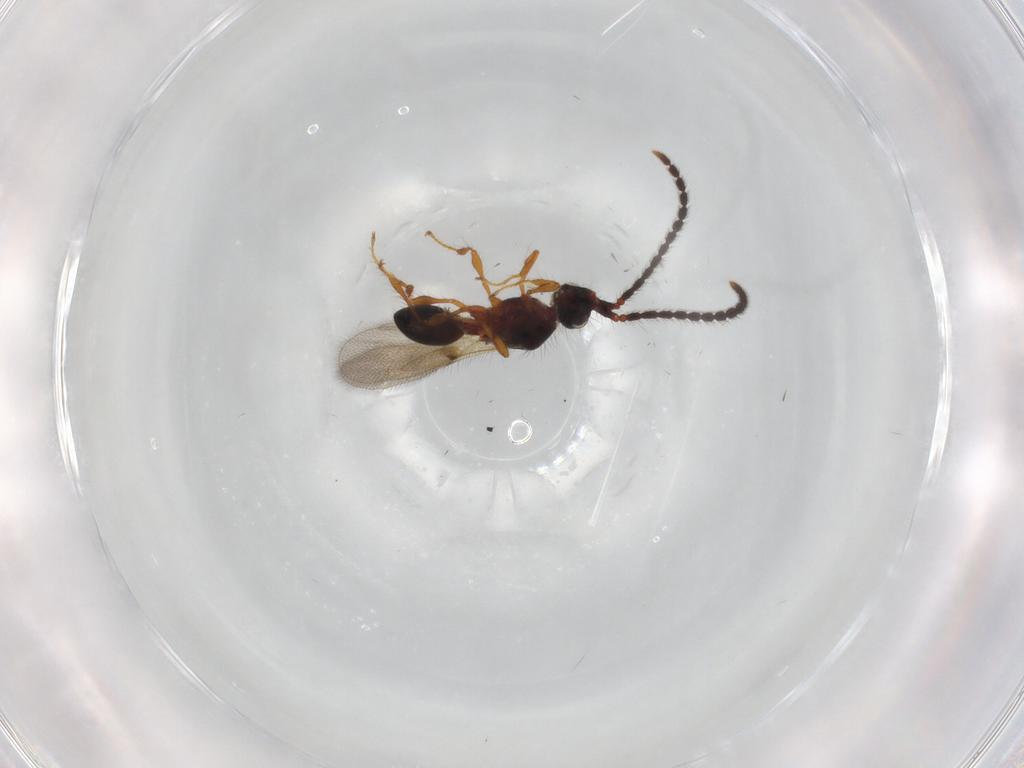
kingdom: Animalia
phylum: Arthropoda
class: Insecta
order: Hymenoptera
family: Diapriidae
